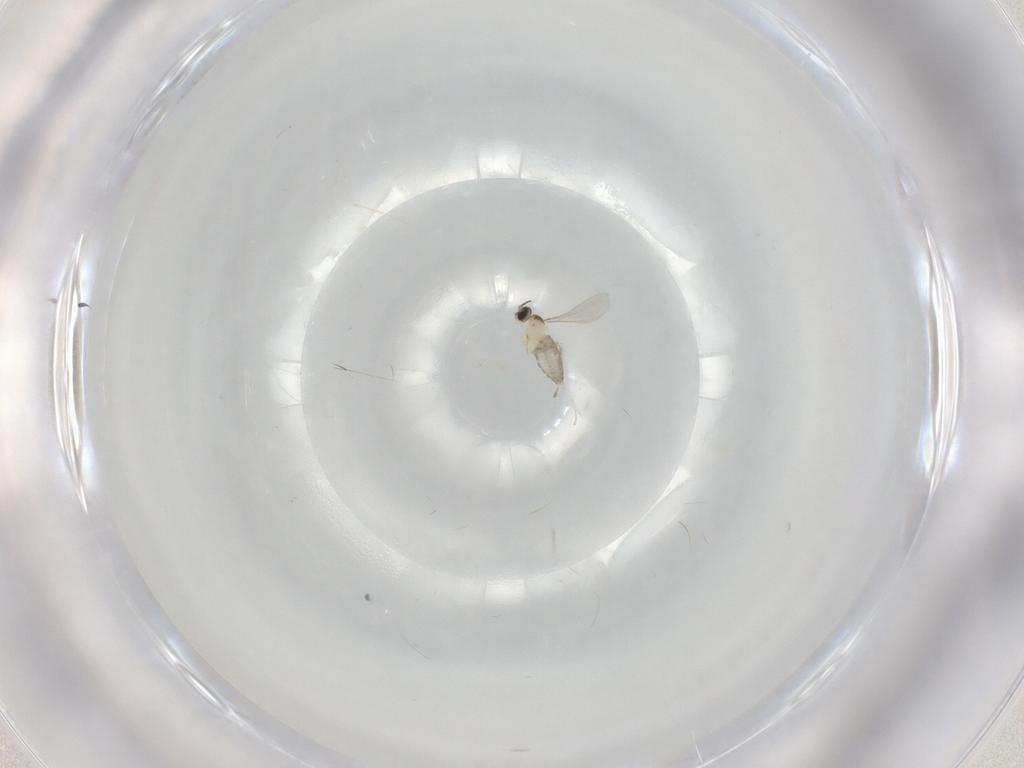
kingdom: Animalia
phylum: Arthropoda
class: Insecta
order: Diptera
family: Cecidomyiidae
